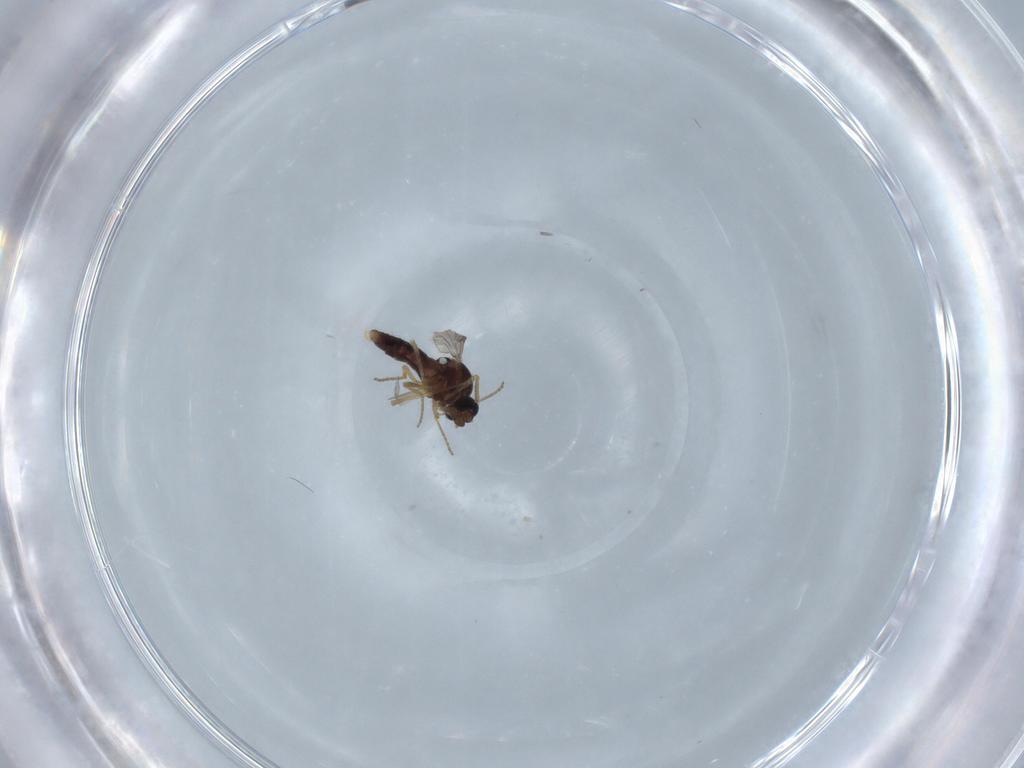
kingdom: Animalia
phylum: Arthropoda
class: Insecta
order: Diptera
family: Ceratopogonidae
